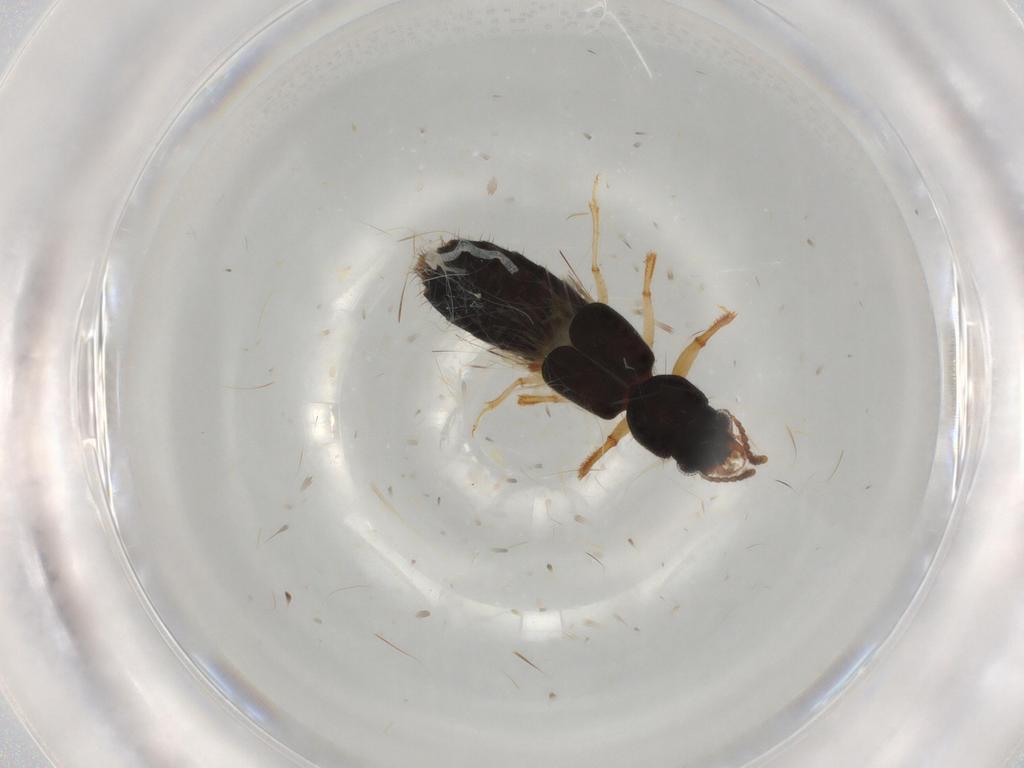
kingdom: Animalia
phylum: Arthropoda
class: Insecta
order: Coleoptera
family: Staphylinidae
